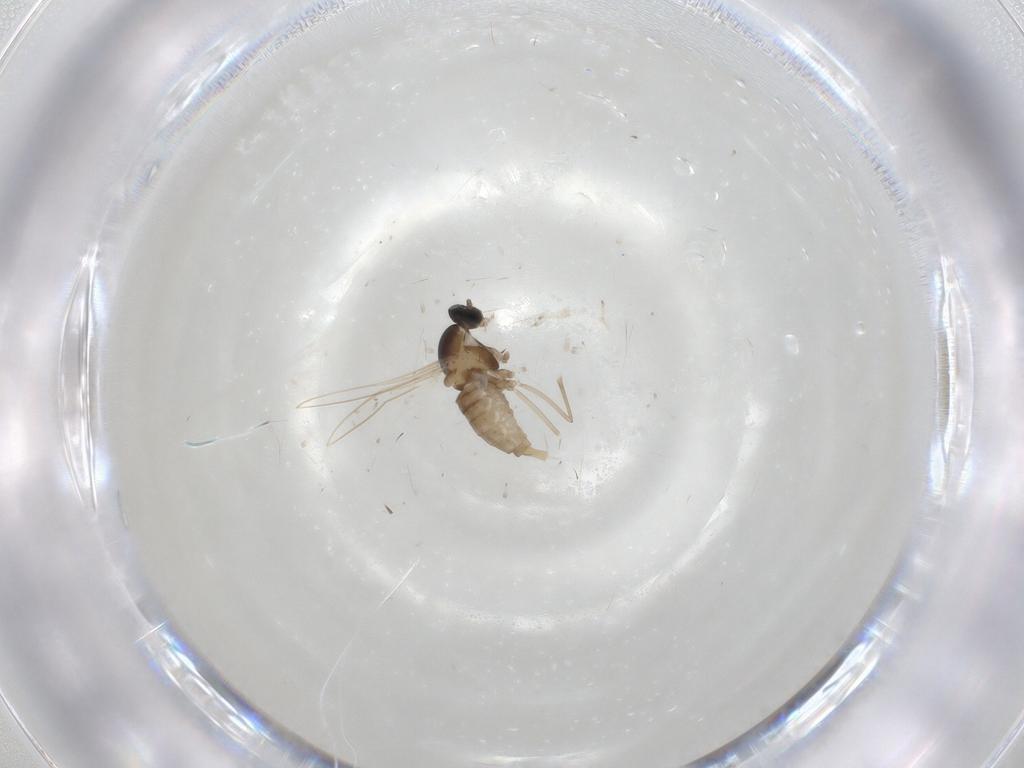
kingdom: Animalia
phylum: Arthropoda
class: Insecta
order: Diptera
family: Cecidomyiidae
